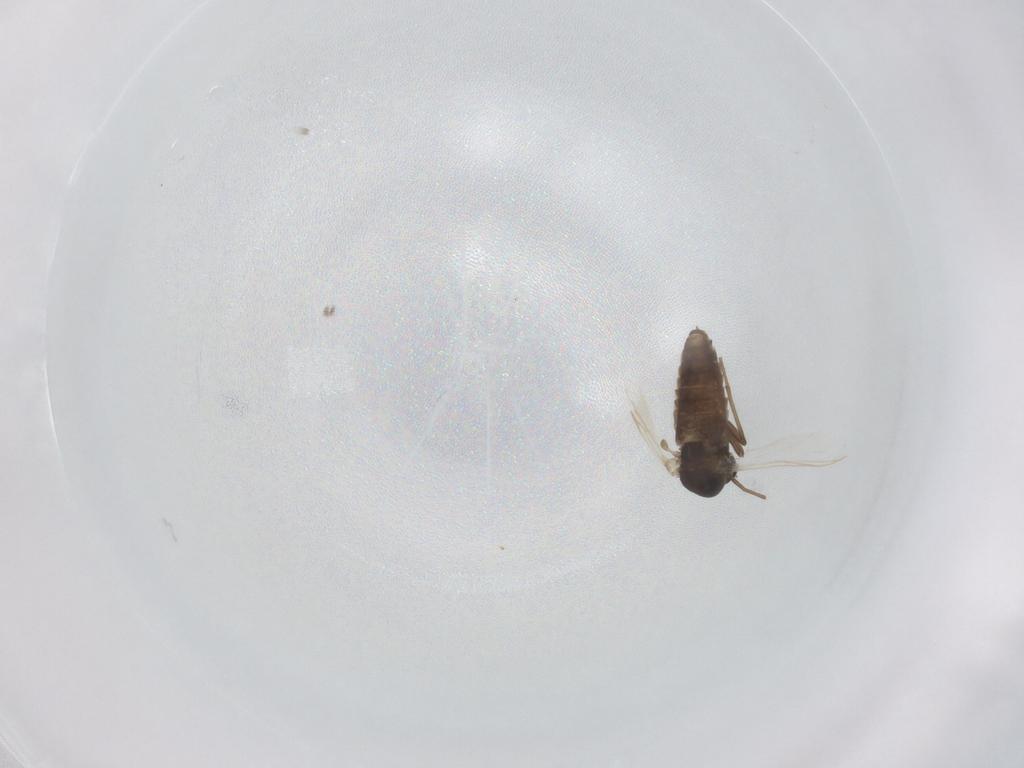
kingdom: Animalia
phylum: Arthropoda
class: Insecta
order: Diptera
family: Chironomidae
